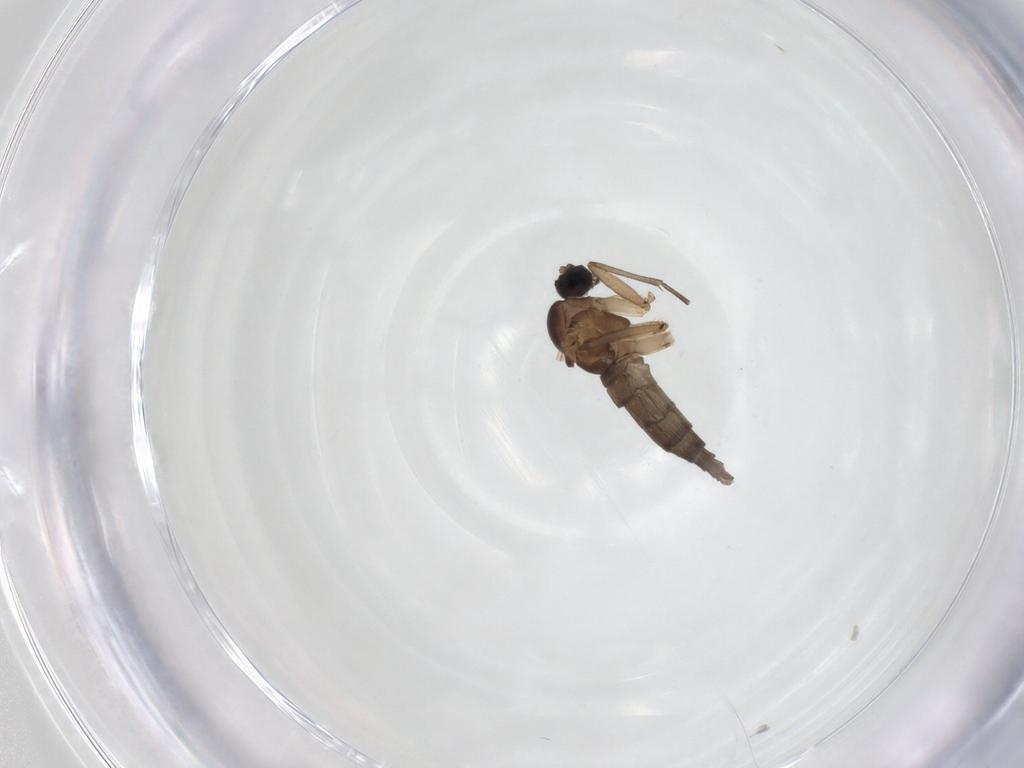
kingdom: Animalia
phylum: Arthropoda
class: Insecta
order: Diptera
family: Sciaridae
